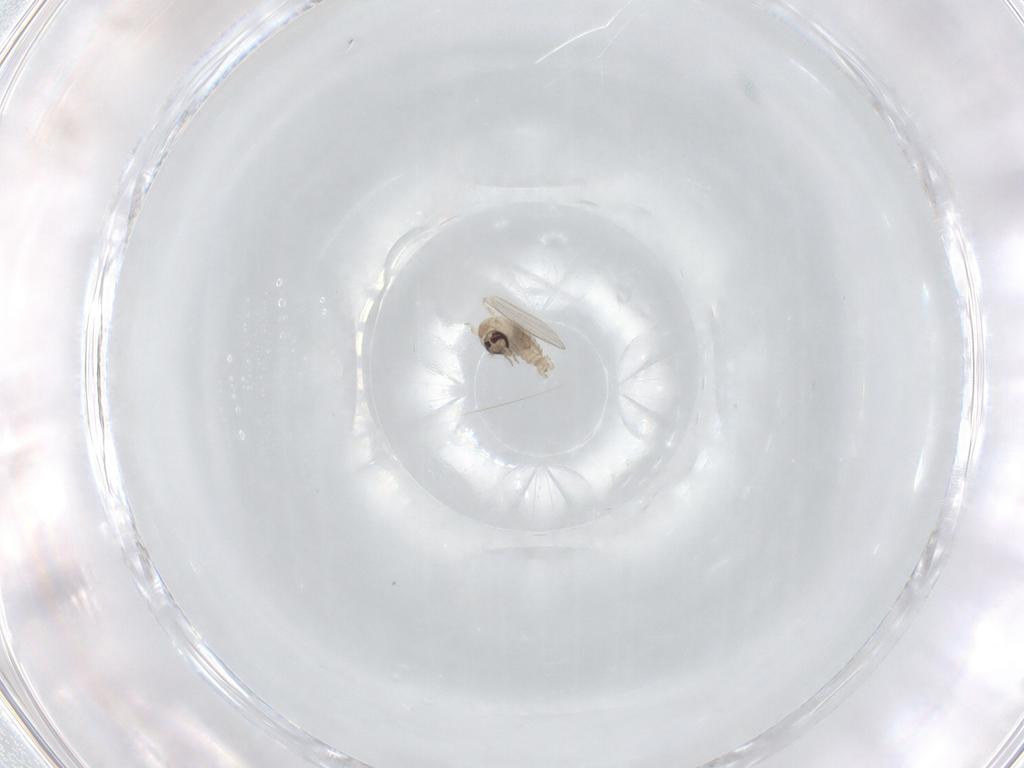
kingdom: Animalia
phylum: Arthropoda
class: Insecta
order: Diptera
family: Psychodidae
